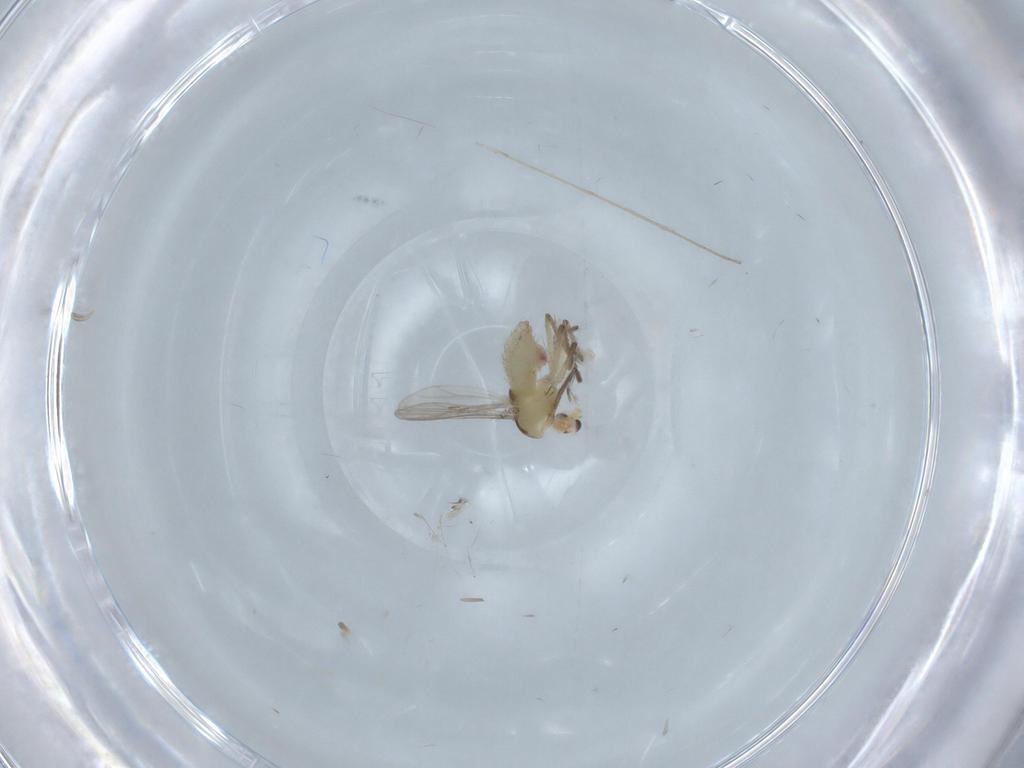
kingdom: Animalia
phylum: Arthropoda
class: Insecta
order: Diptera
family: Chironomidae
